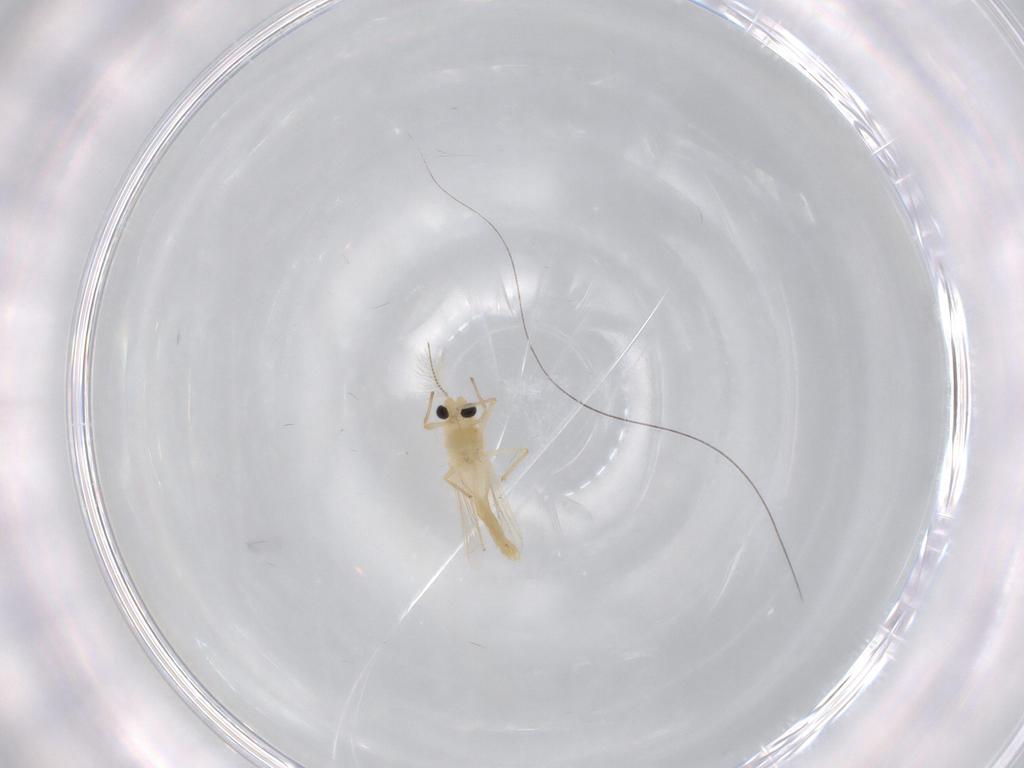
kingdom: Animalia
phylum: Arthropoda
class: Insecta
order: Diptera
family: Chironomidae
